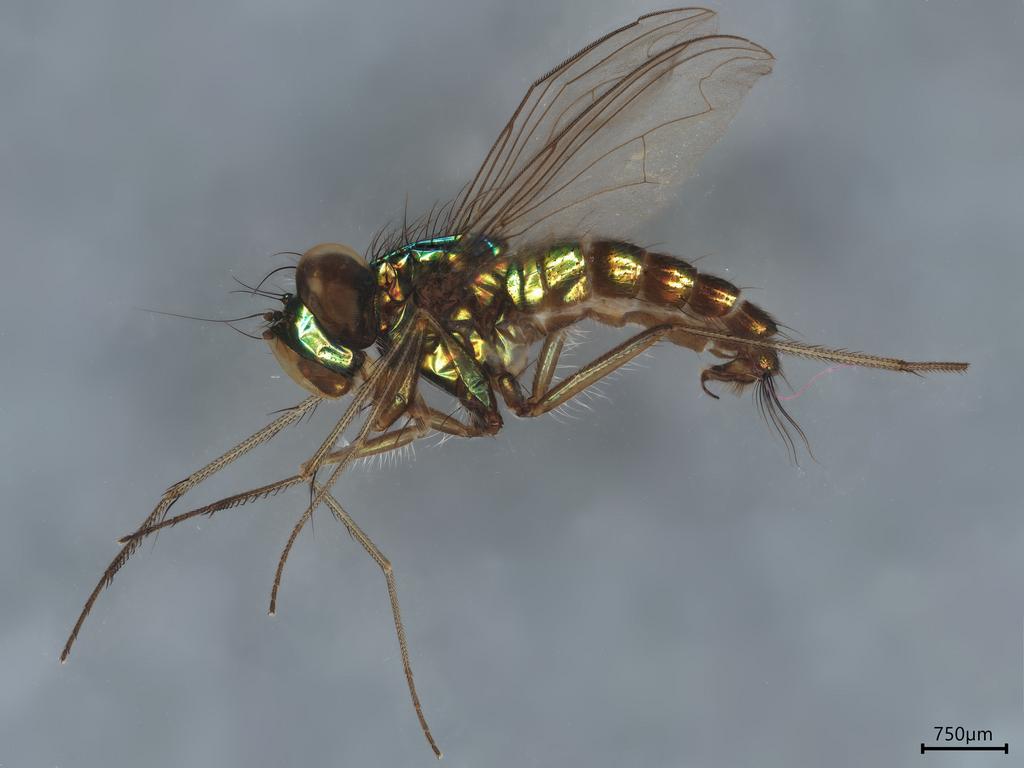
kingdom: Animalia
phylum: Arthropoda
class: Insecta
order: Diptera
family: Dolichopodidae
